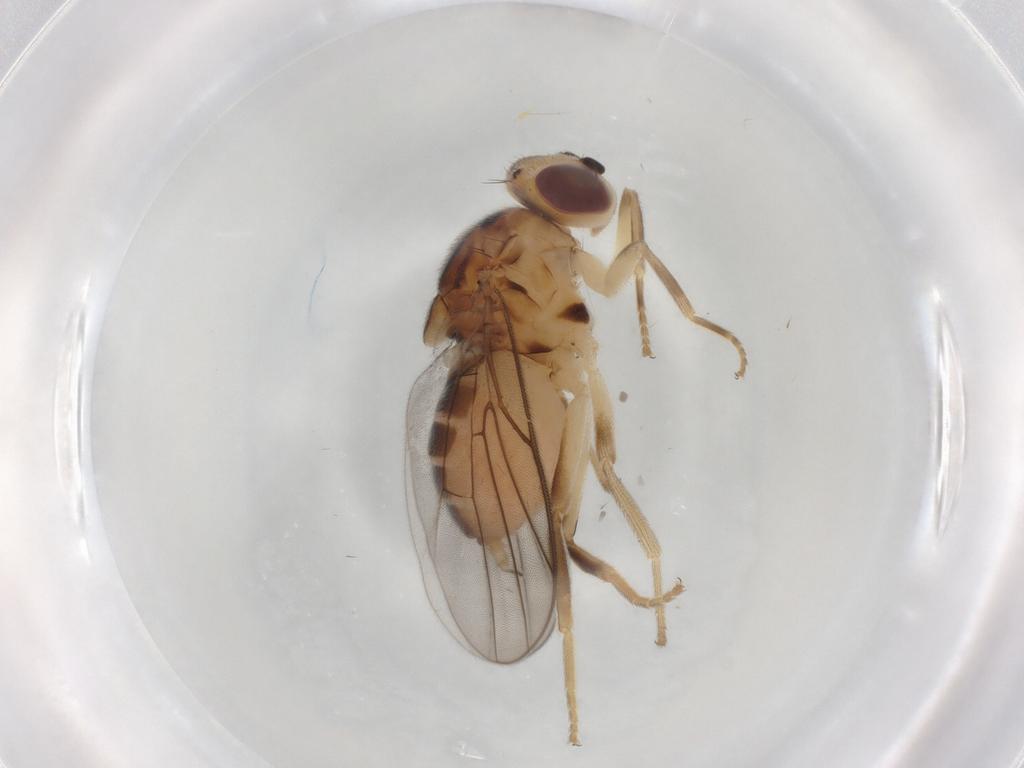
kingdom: Animalia
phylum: Arthropoda
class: Insecta
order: Diptera
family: Chloropidae
